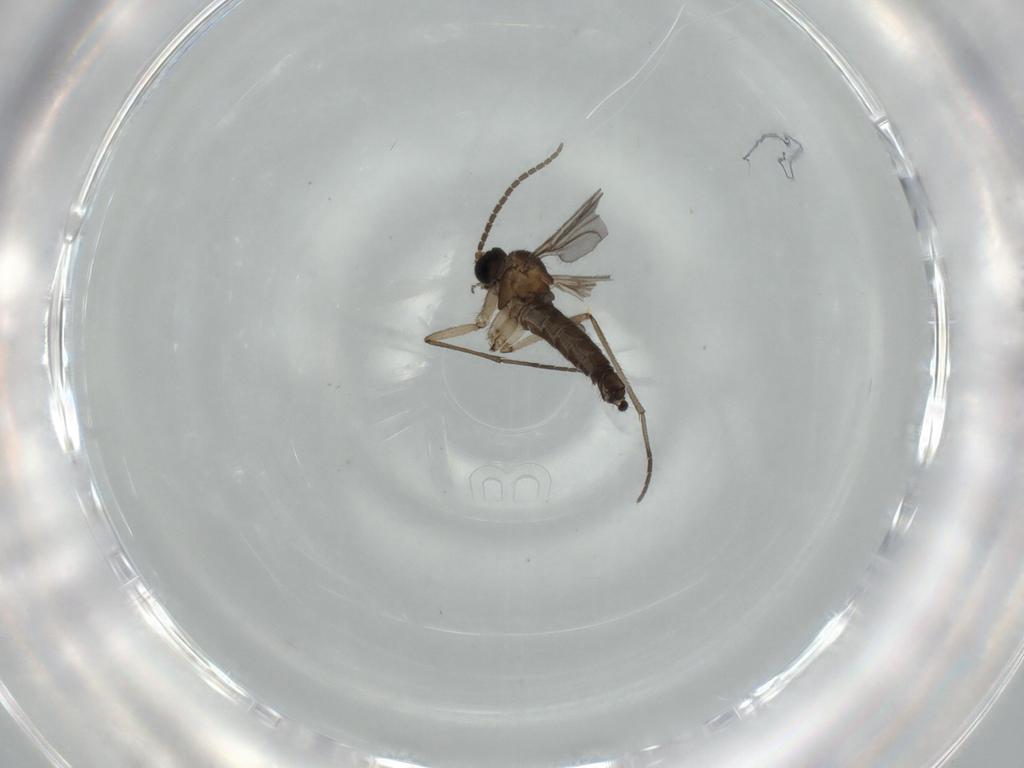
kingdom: Animalia
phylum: Arthropoda
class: Insecta
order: Diptera
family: Sciaridae
